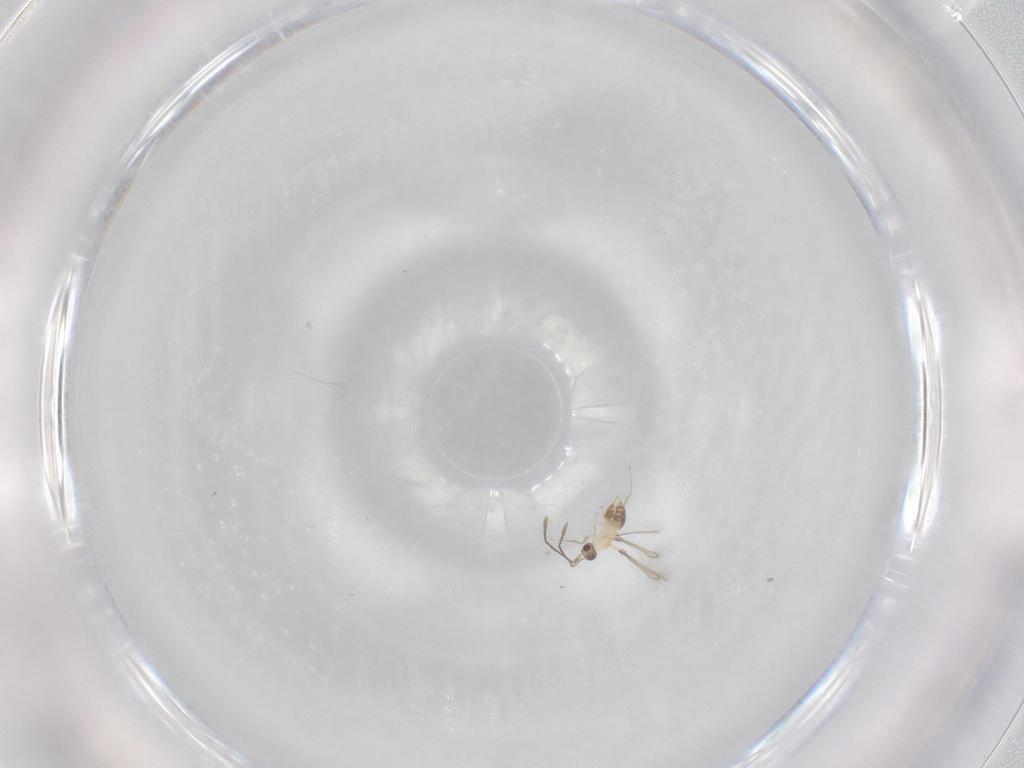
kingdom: Animalia
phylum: Arthropoda
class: Insecta
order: Hymenoptera
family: Mymaridae
